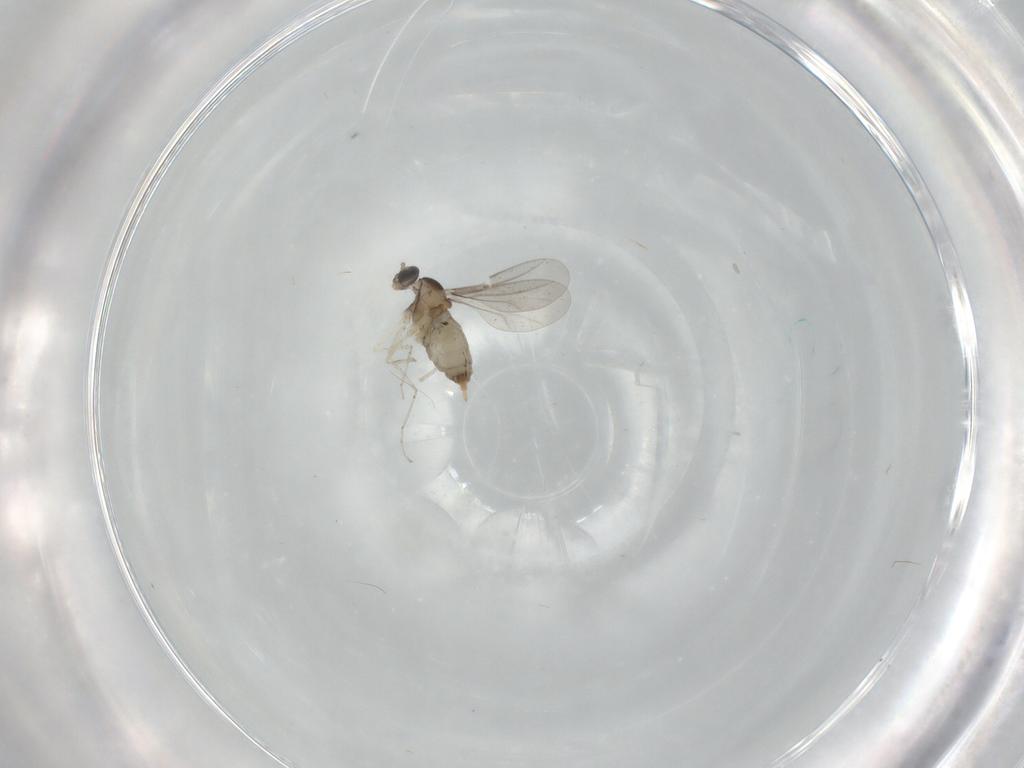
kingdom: Animalia
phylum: Arthropoda
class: Insecta
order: Diptera
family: Cecidomyiidae
